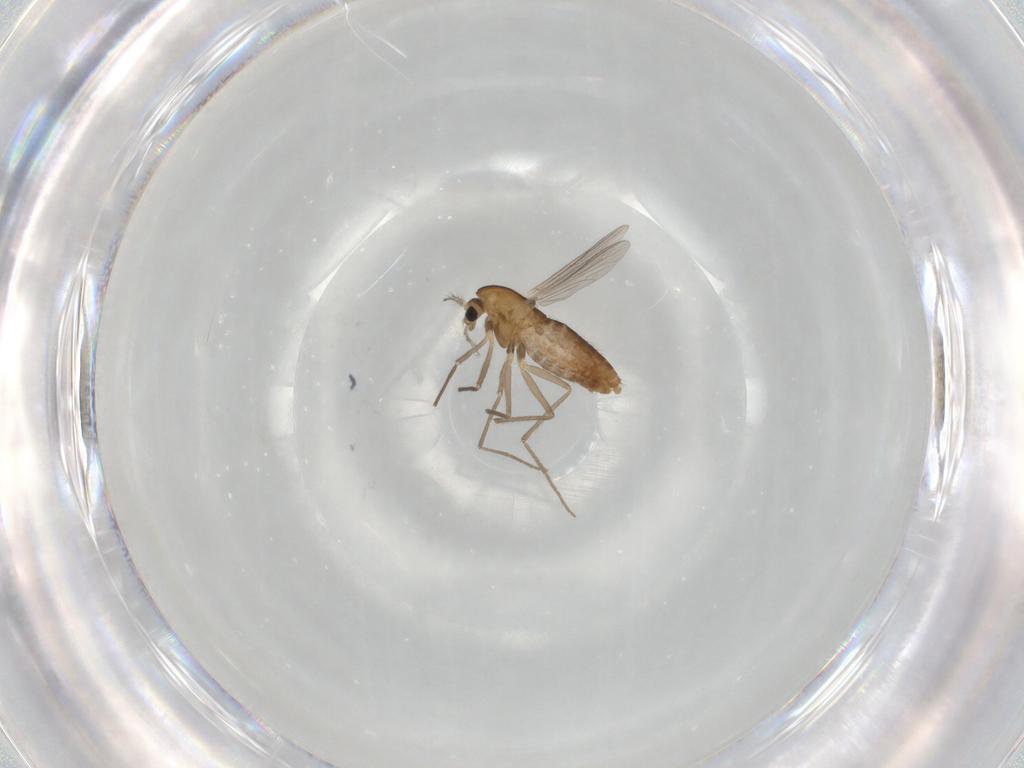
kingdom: Animalia
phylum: Arthropoda
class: Insecta
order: Diptera
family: Chironomidae
